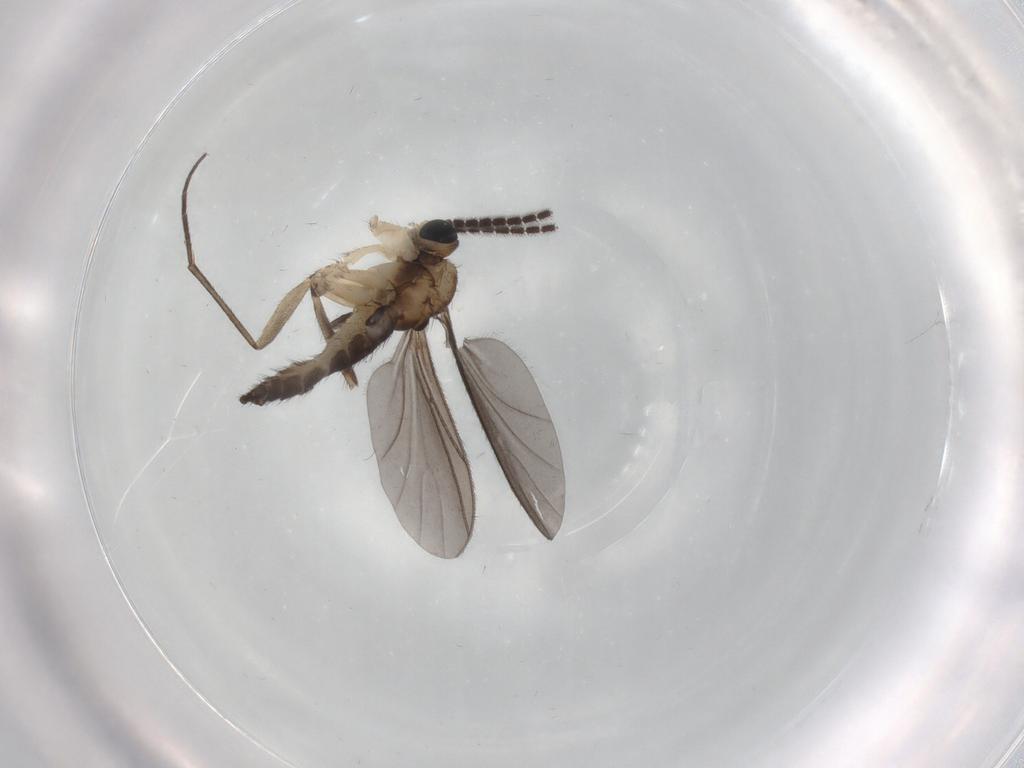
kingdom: Animalia
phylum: Arthropoda
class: Insecta
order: Diptera
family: Sciaridae
